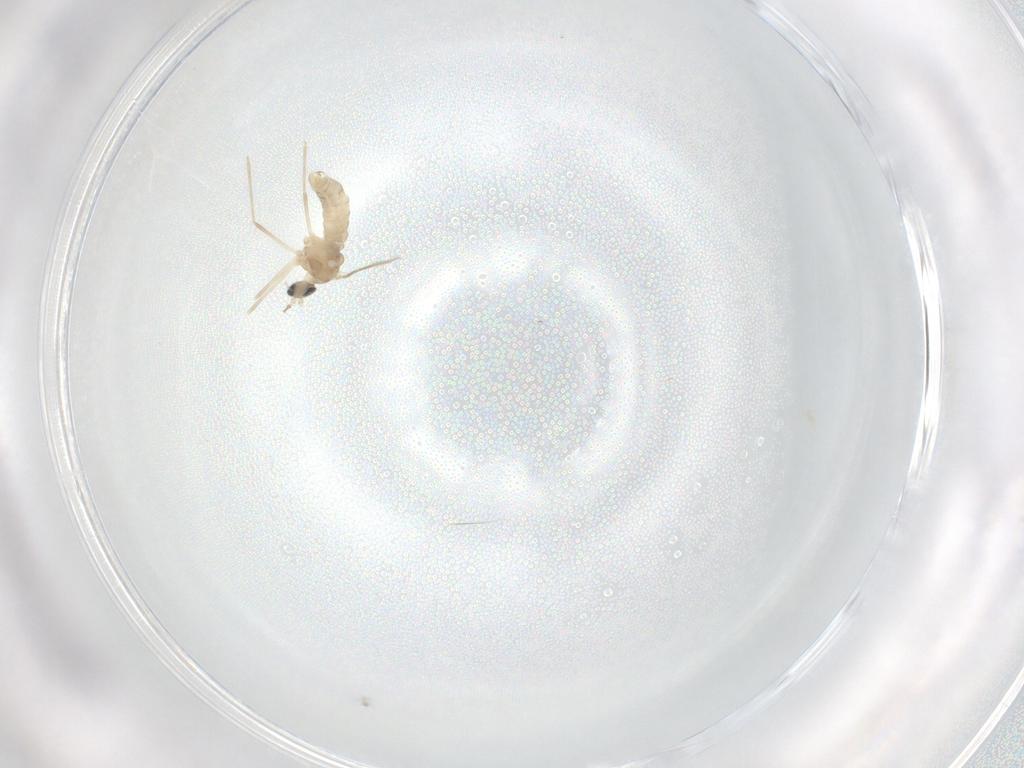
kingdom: Animalia
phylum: Arthropoda
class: Insecta
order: Diptera
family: Cecidomyiidae
